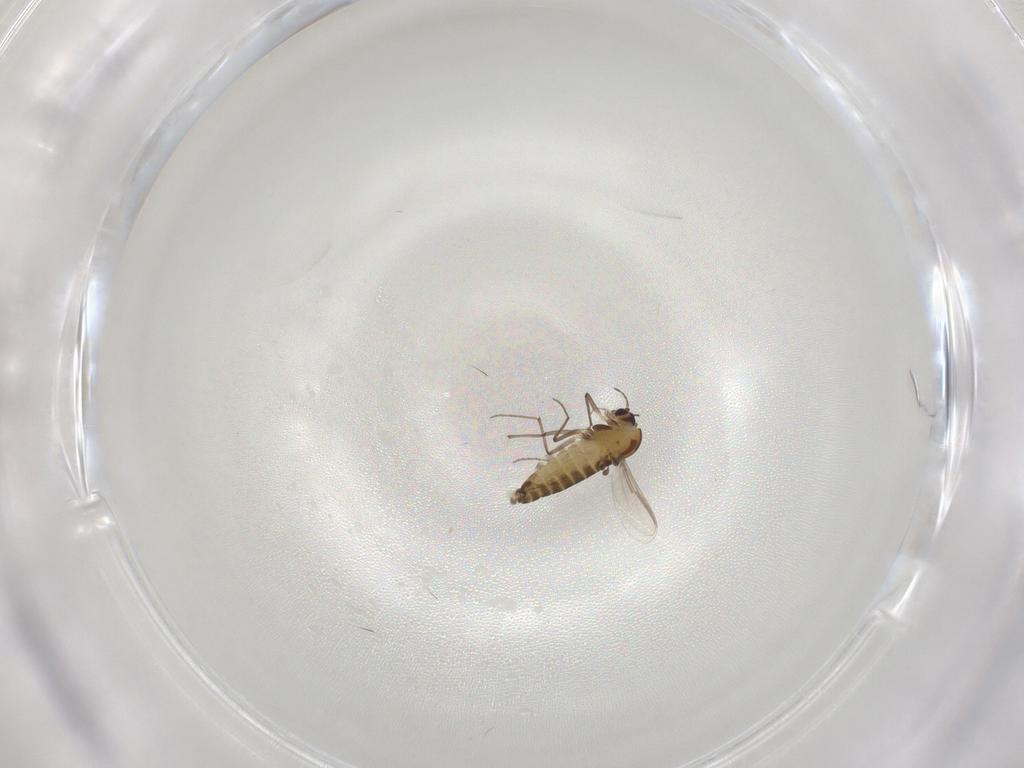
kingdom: Animalia
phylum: Arthropoda
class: Insecta
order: Diptera
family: Chironomidae
